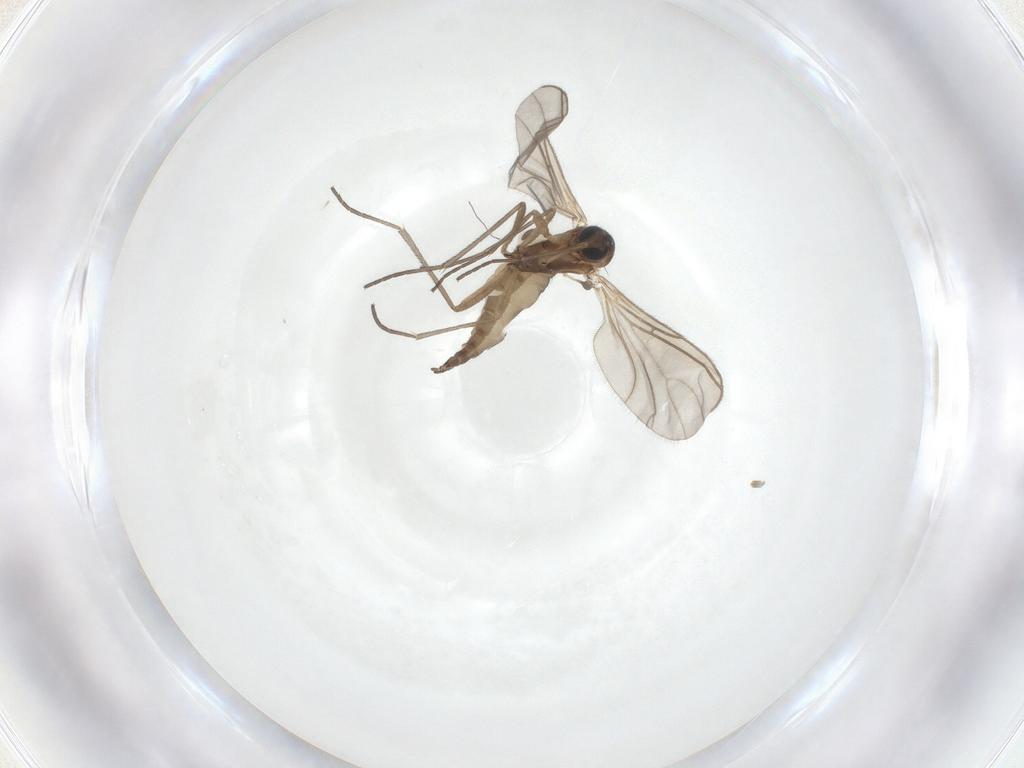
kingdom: Animalia
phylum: Arthropoda
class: Insecta
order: Diptera
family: Sciaridae
